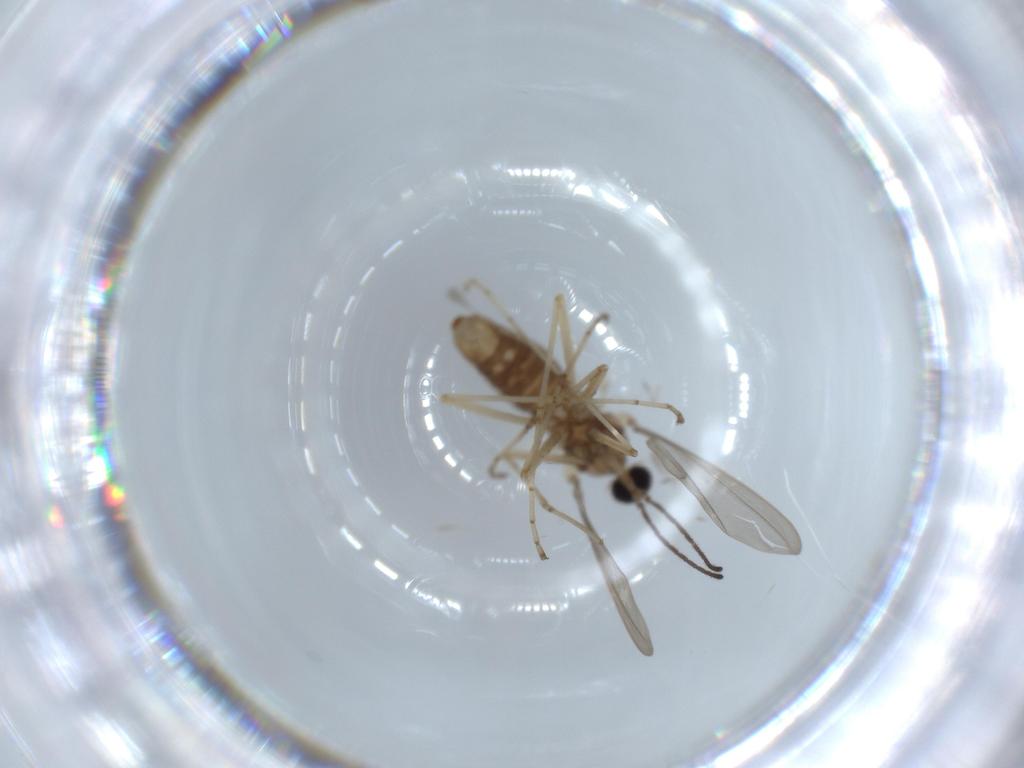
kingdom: Animalia
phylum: Arthropoda
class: Insecta
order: Diptera
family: Cecidomyiidae
